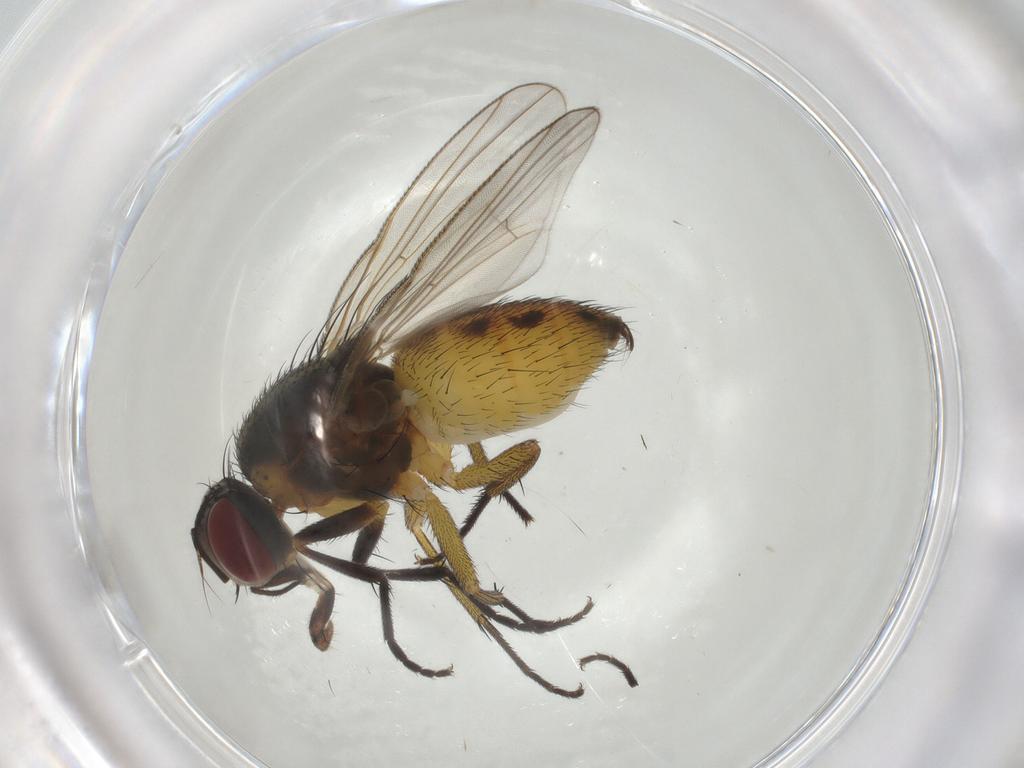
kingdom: Animalia
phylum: Arthropoda
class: Insecta
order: Diptera
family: Muscidae
